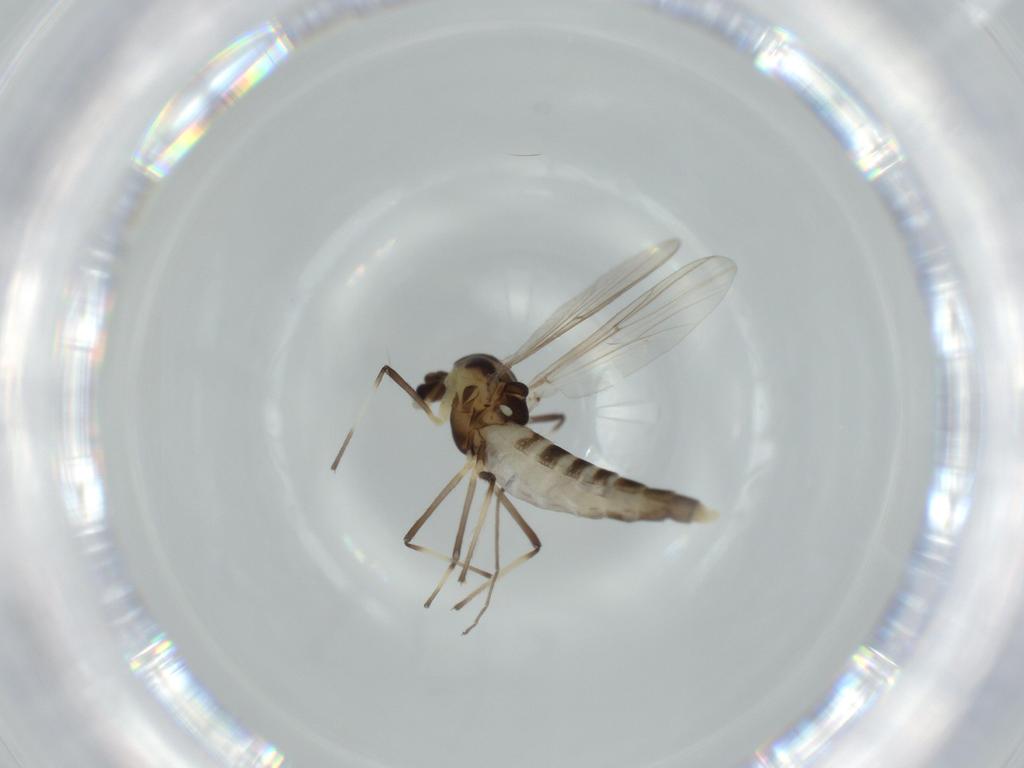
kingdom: Animalia
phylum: Arthropoda
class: Insecta
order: Diptera
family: Chironomidae
